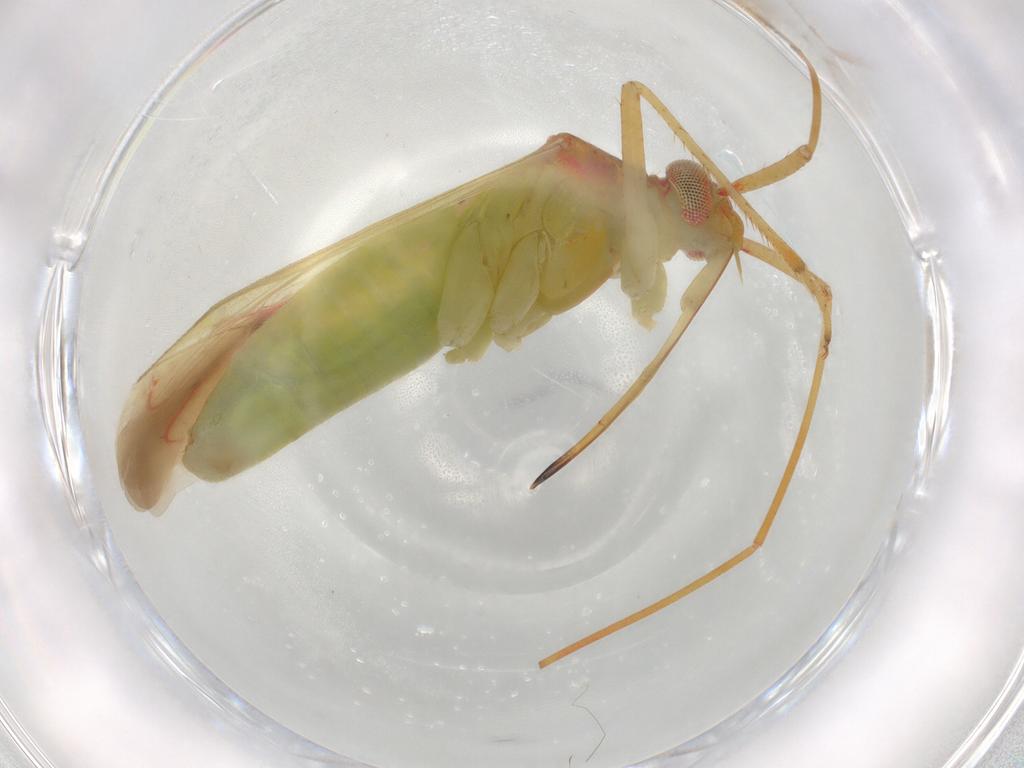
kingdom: Animalia
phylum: Arthropoda
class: Insecta
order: Hemiptera
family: Miridae
